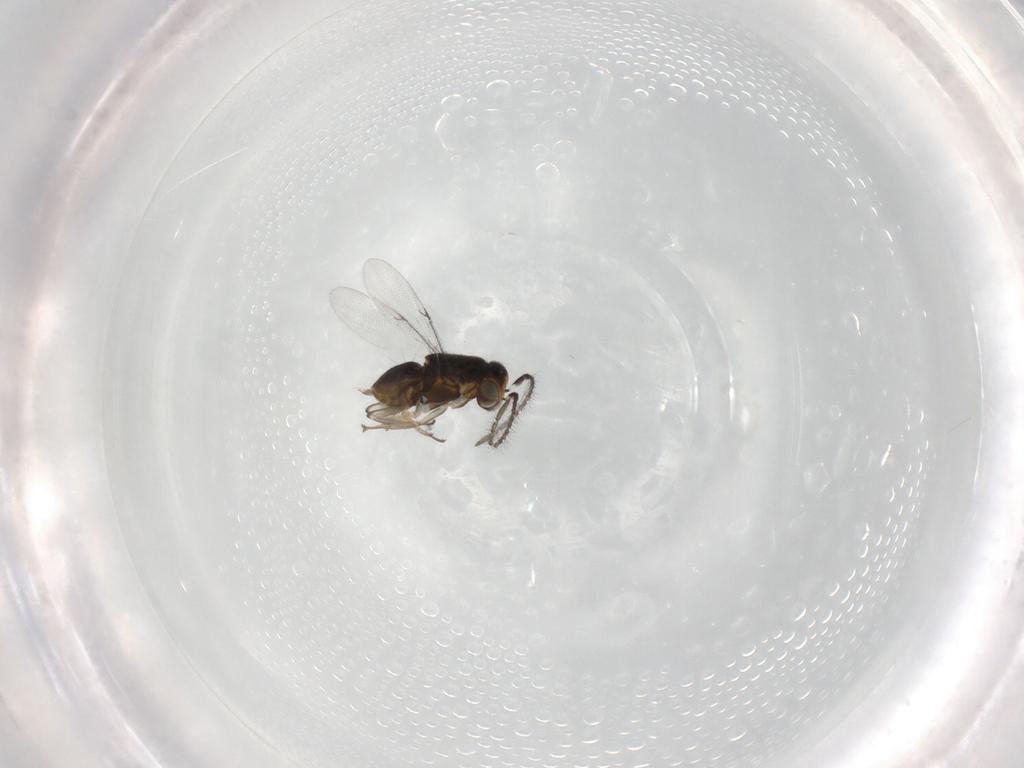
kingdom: Animalia
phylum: Arthropoda
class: Insecta
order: Hymenoptera
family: Encyrtidae
